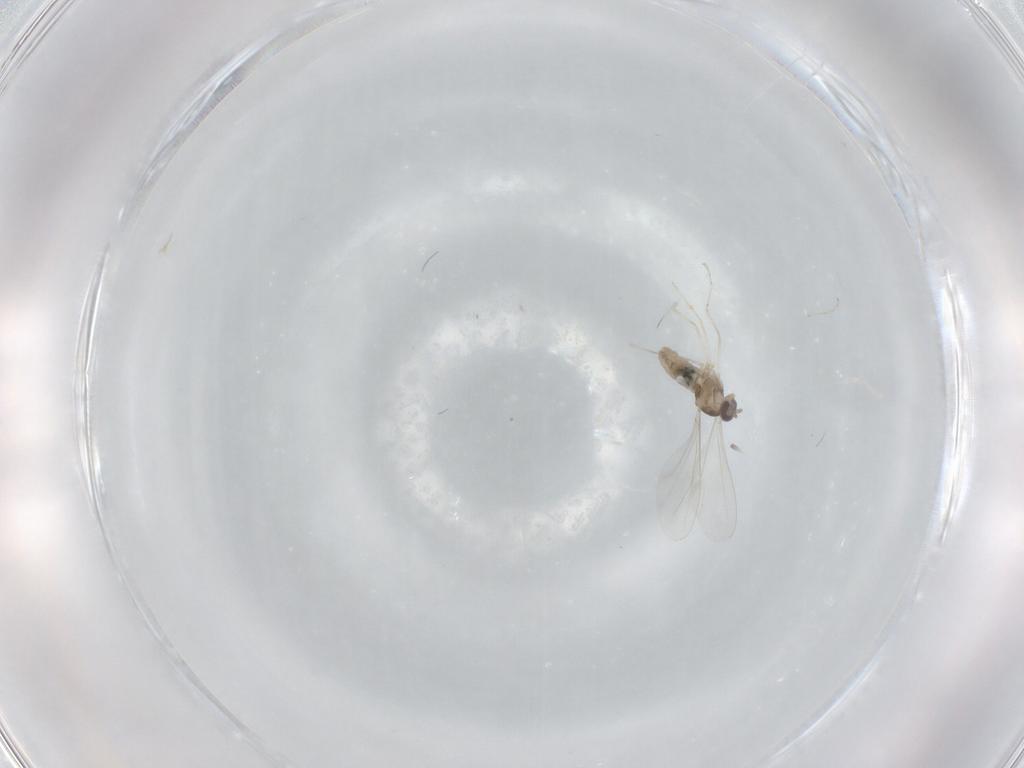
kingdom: Animalia
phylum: Arthropoda
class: Insecta
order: Diptera
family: Cecidomyiidae
